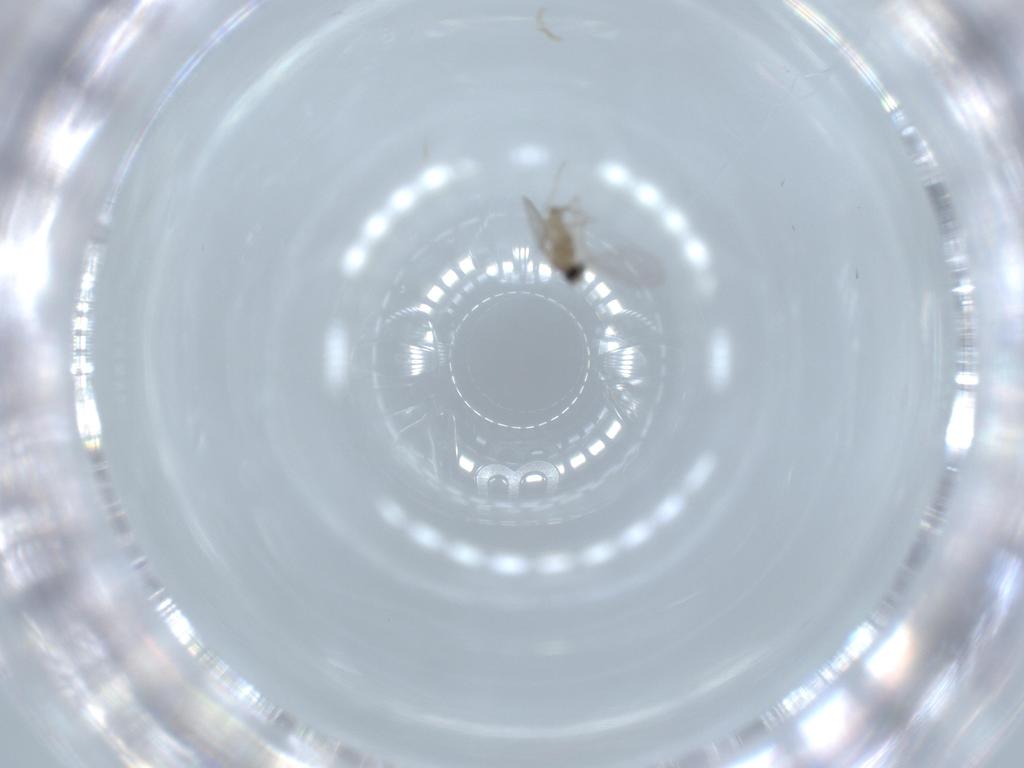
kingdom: Animalia
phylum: Arthropoda
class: Insecta
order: Diptera
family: Cecidomyiidae
